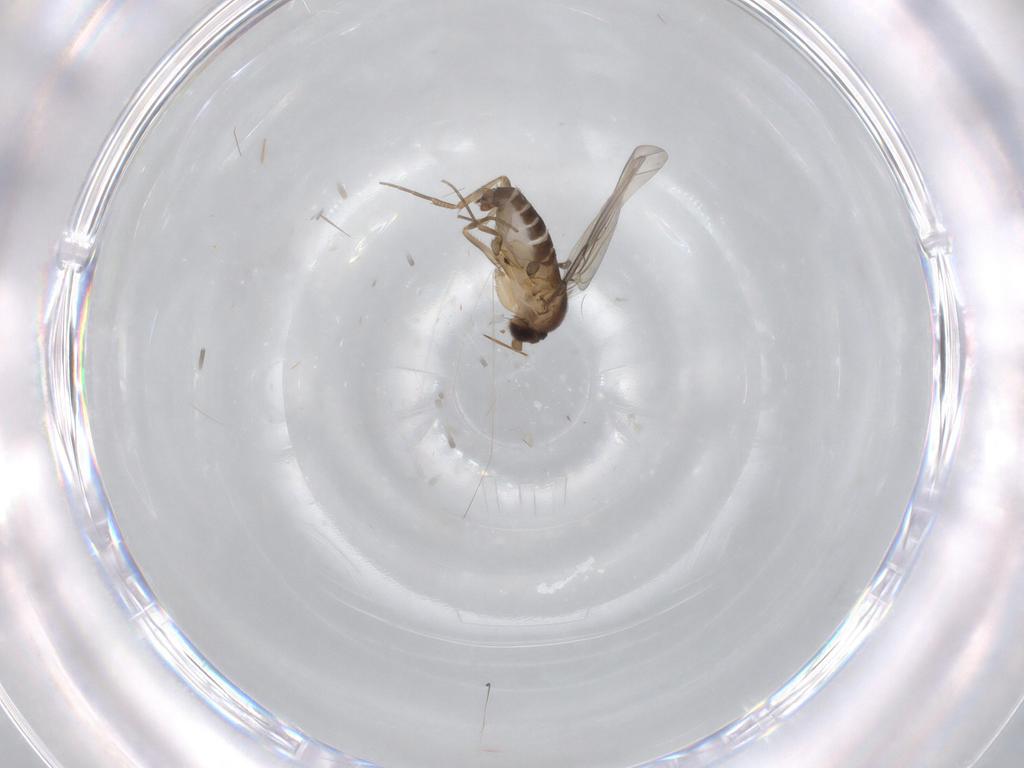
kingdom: Animalia
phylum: Arthropoda
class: Insecta
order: Diptera
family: Phoridae
